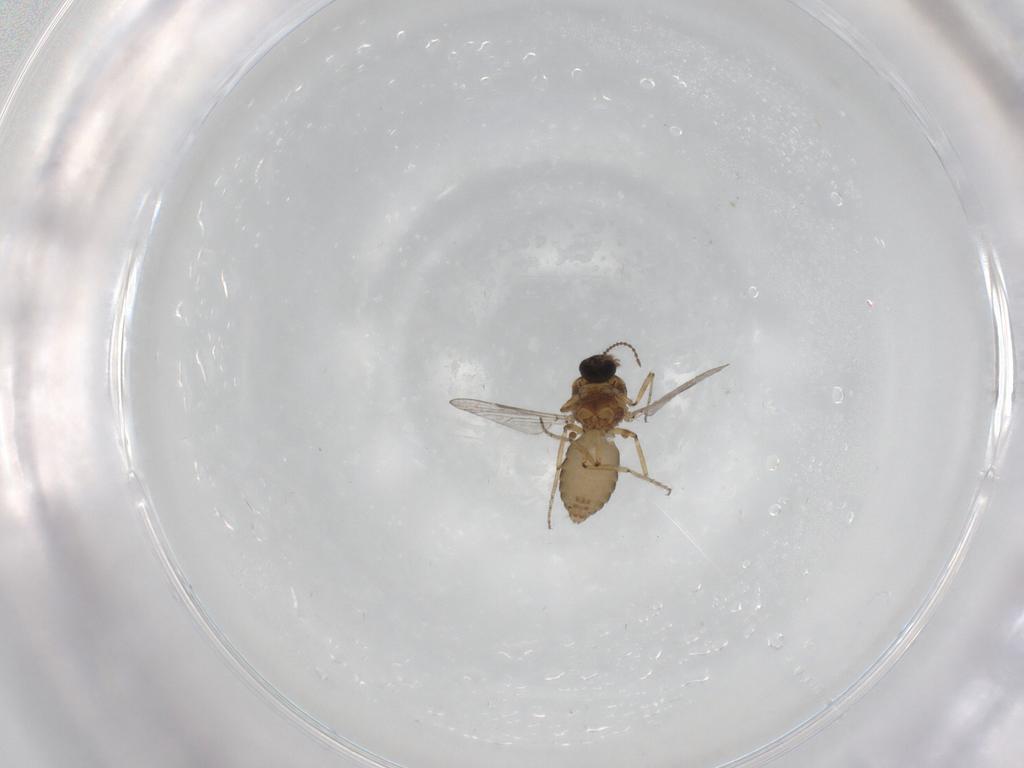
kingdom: Animalia
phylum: Arthropoda
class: Insecta
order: Diptera
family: Ceratopogonidae
